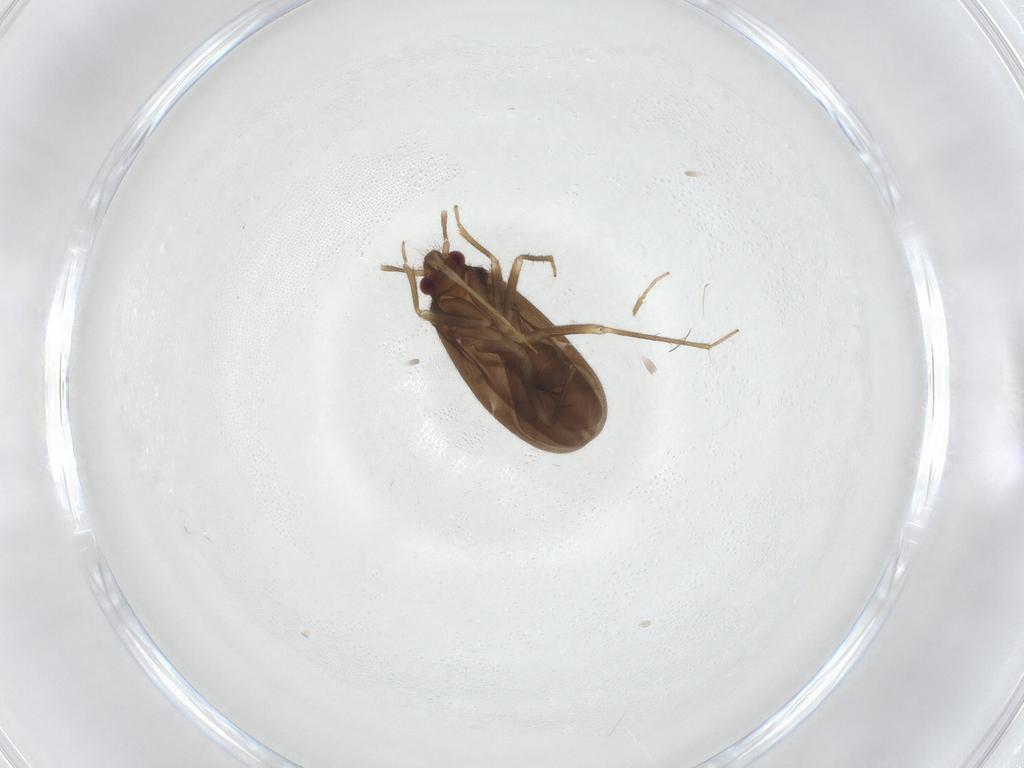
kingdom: Animalia
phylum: Arthropoda
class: Insecta
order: Hemiptera
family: Ceratocombidae
